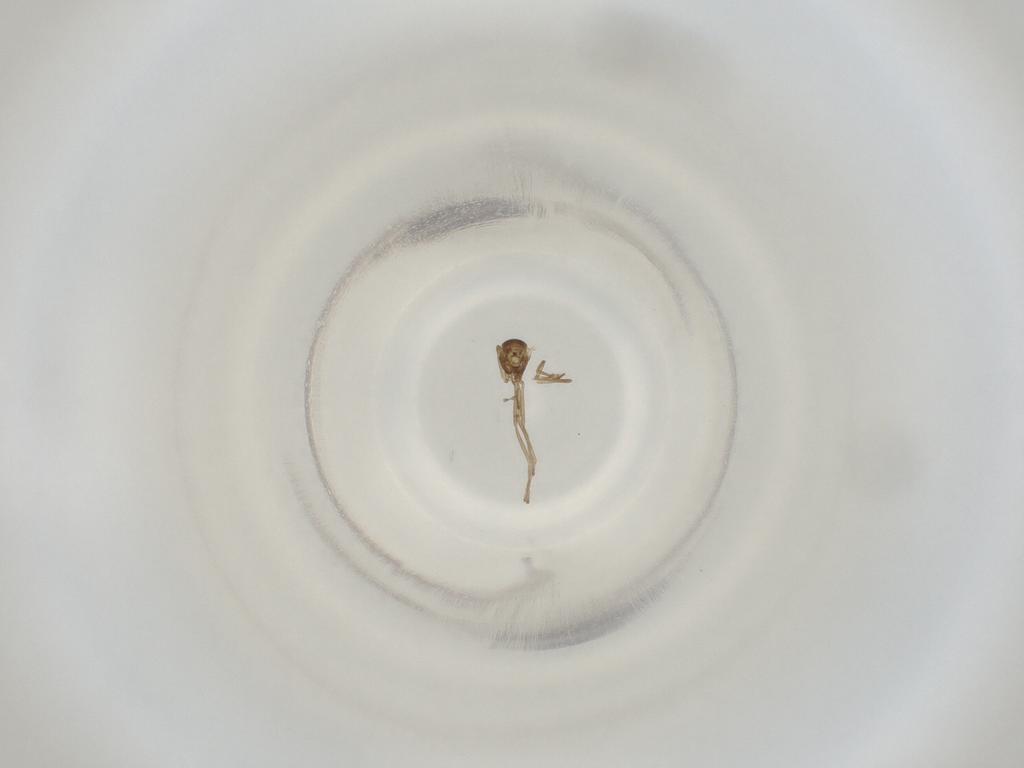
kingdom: Animalia
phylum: Arthropoda
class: Insecta
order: Diptera
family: Cecidomyiidae
